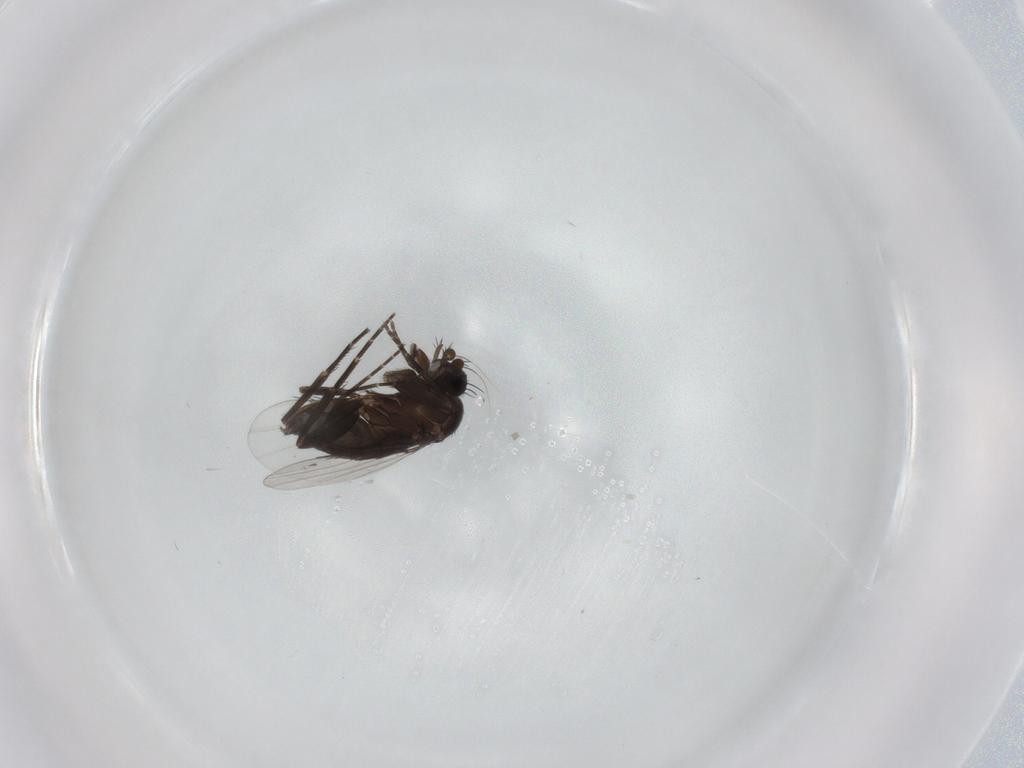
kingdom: Animalia
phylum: Arthropoda
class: Insecta
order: Diptera
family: Phoridae
